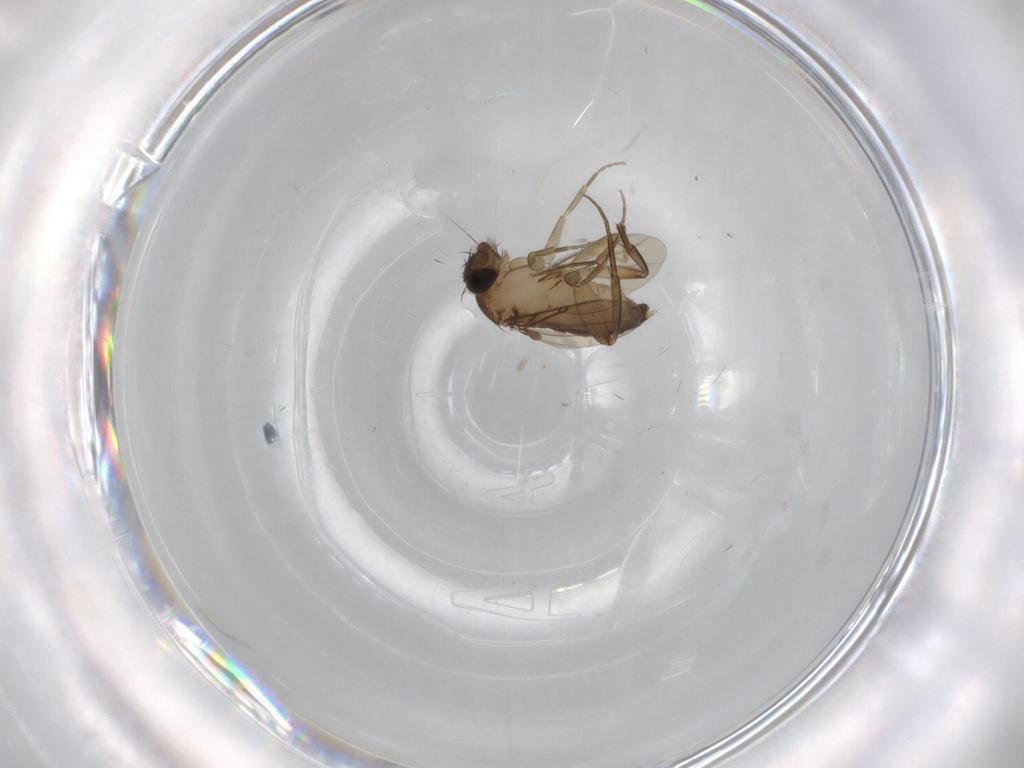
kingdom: Animalia
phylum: Arthropoda
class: Insecta
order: Diptera
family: Phoridae
